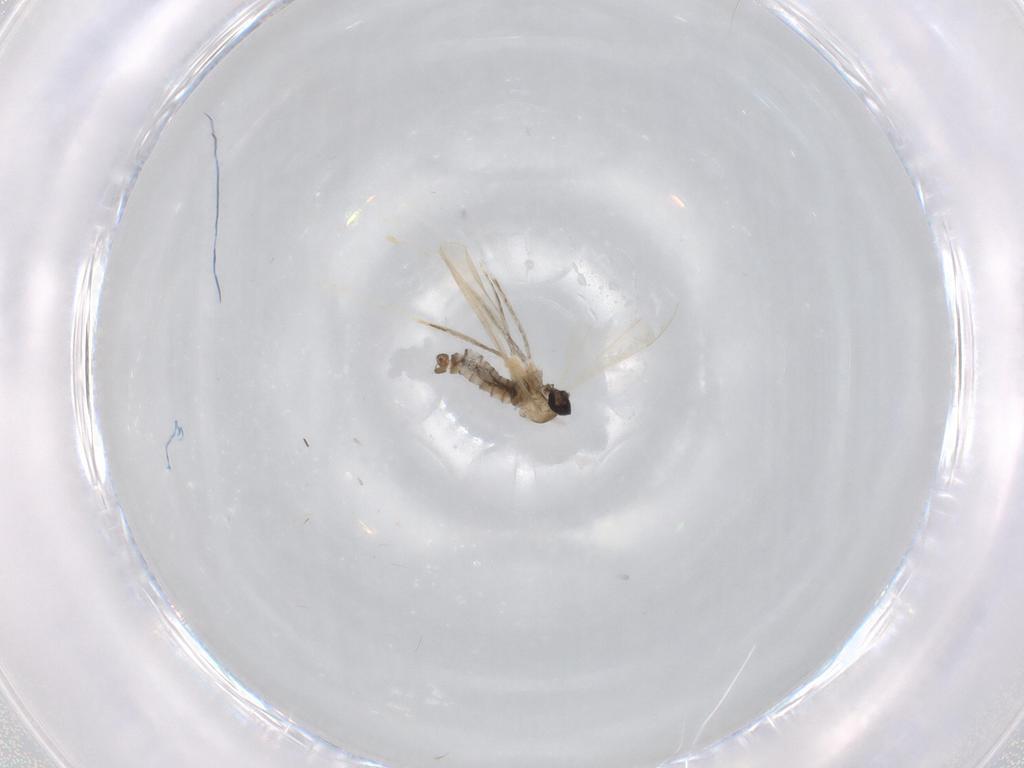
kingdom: Animalia
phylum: Arthropoda
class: Insecta
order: Diptera
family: Cecidomyiidae
